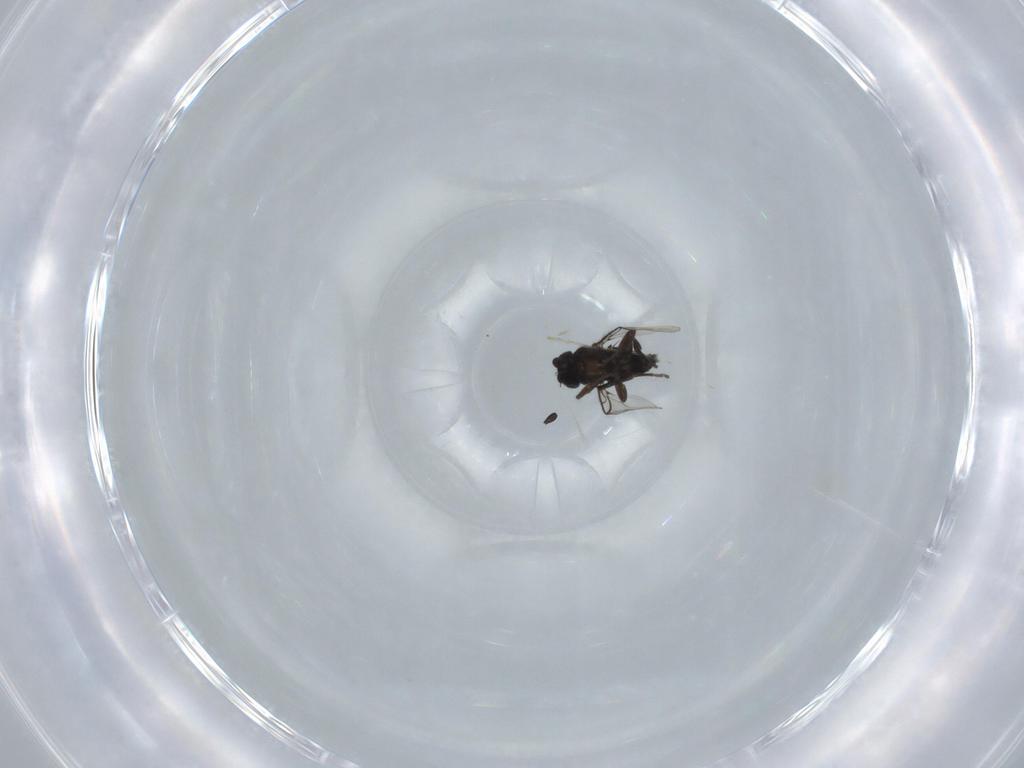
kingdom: Animalia
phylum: Arthropoda
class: Insecta
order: Diptera
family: Phoridae
